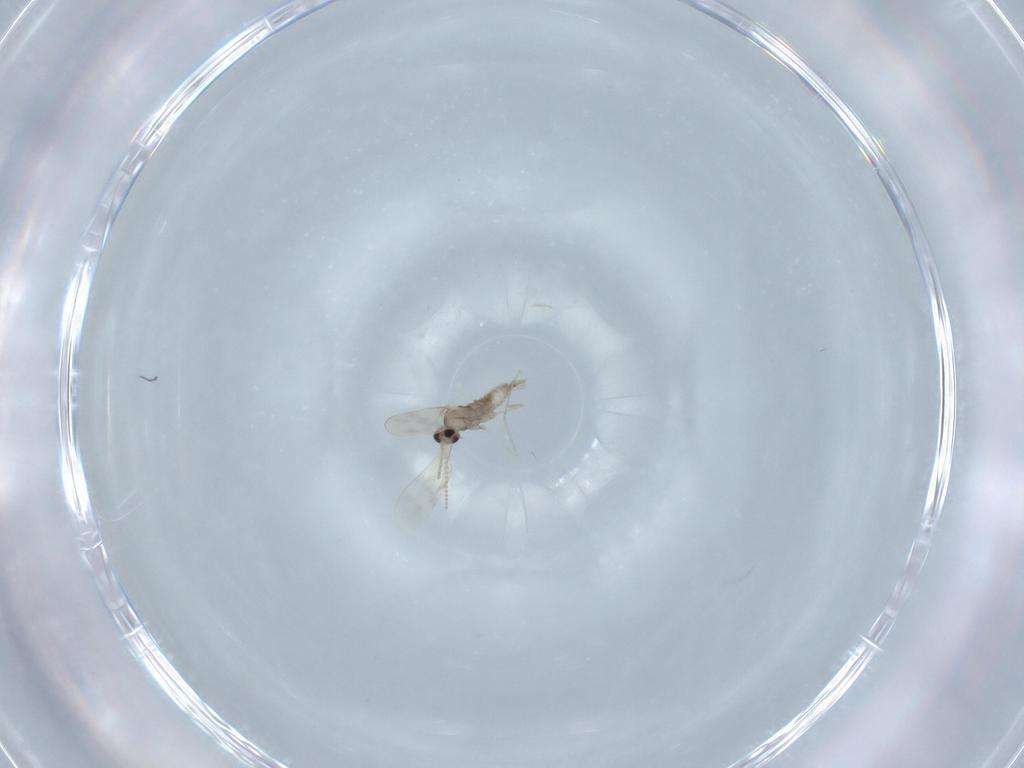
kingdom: Animalia
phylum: Arthropoda
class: Insecta
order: Diptera
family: Cecidomyiidae
